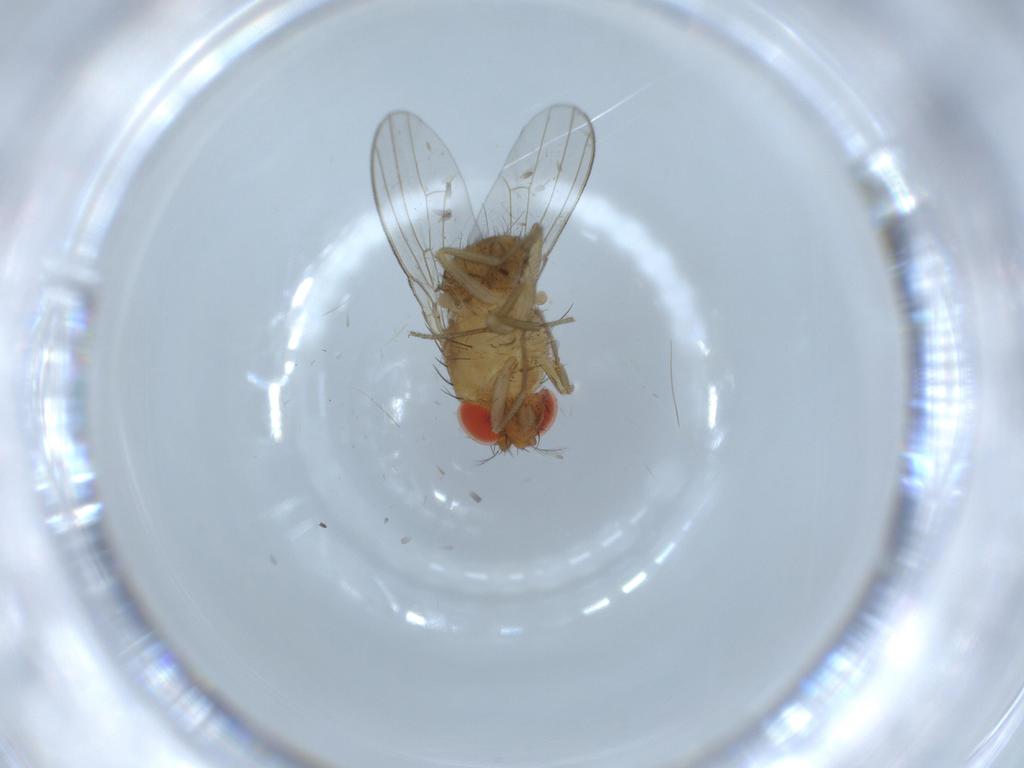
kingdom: Animalia
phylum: Arthropoda
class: Insecta
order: Diptera
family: Drosophilidae
